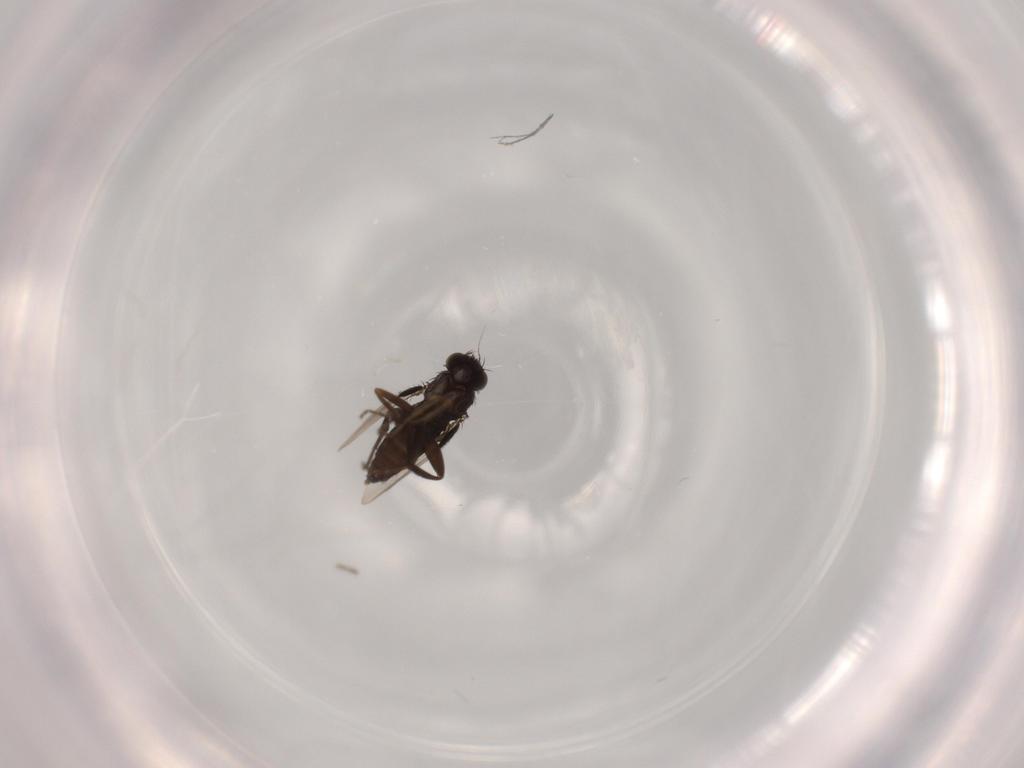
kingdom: Animalia
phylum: Arthropoda
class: Insecta
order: Diptera
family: Phoridae
